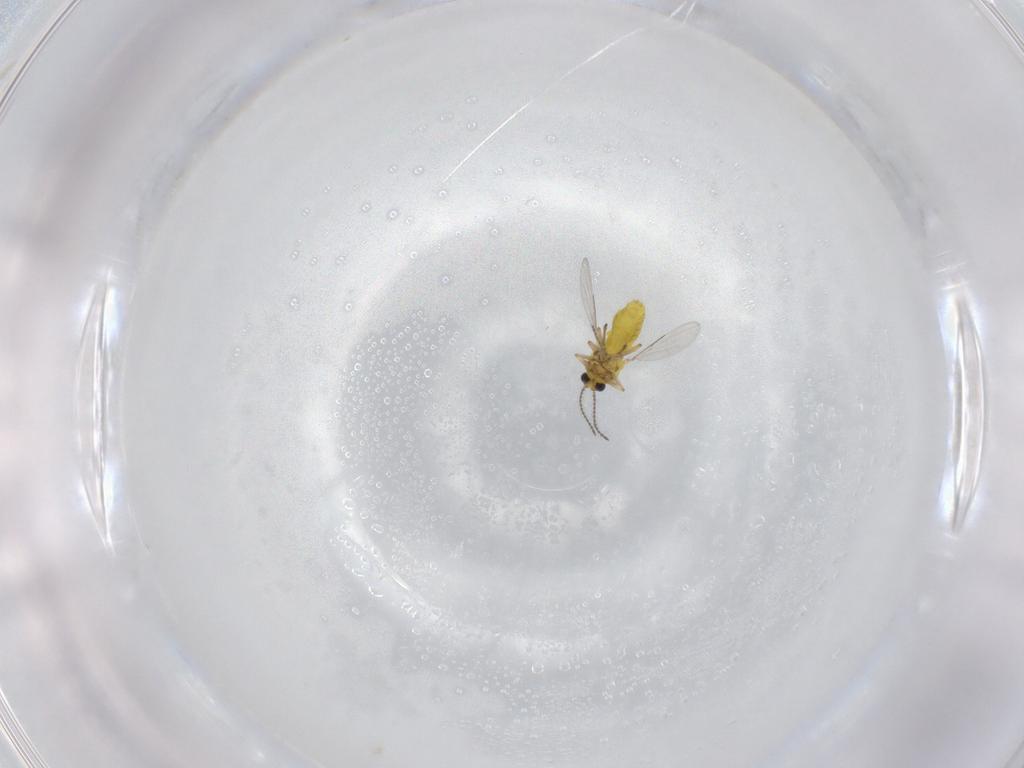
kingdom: Animalia
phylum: Arthropoda
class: Insecta
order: Diptera
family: Ceratopogonidae
